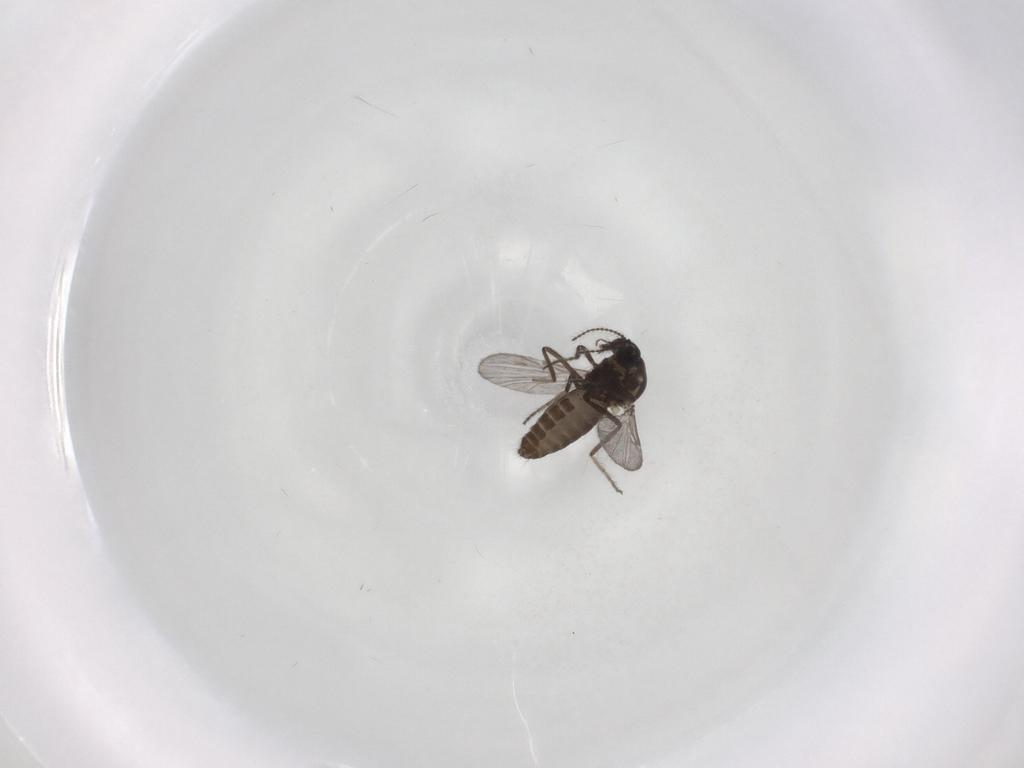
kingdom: Animalia
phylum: Arthropoda
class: Insecta
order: Diptera
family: Ceratopogonidae
